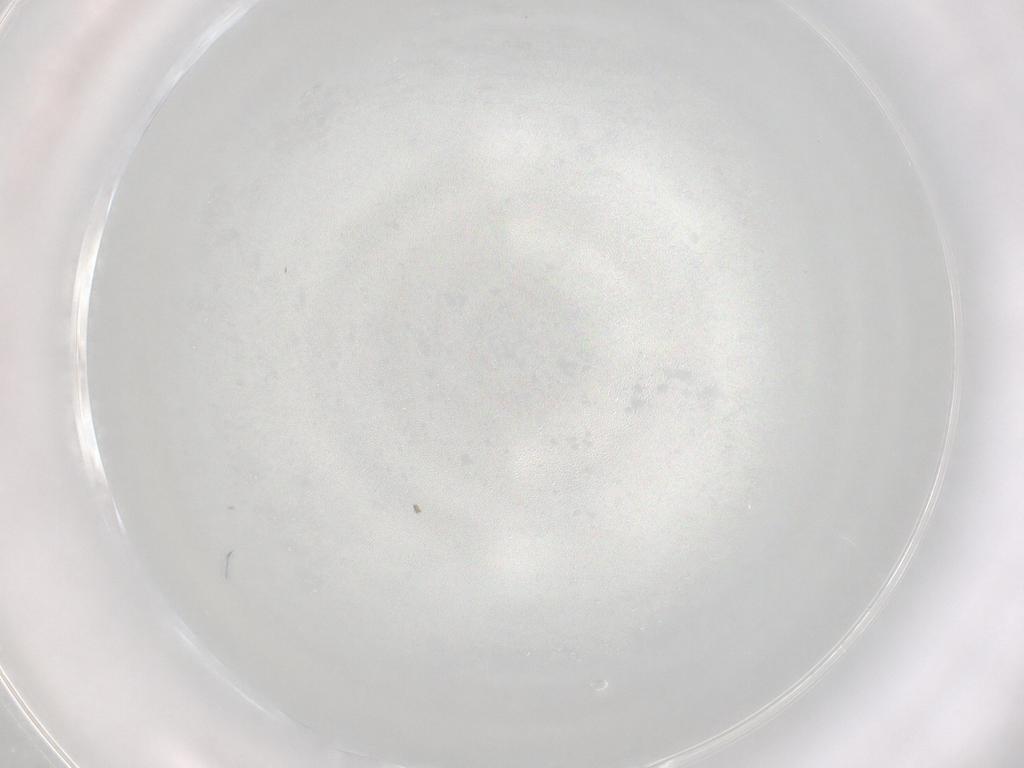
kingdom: Animalia
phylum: Arthropoda
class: Insecta
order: Diptera
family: Cecidomyiidae
